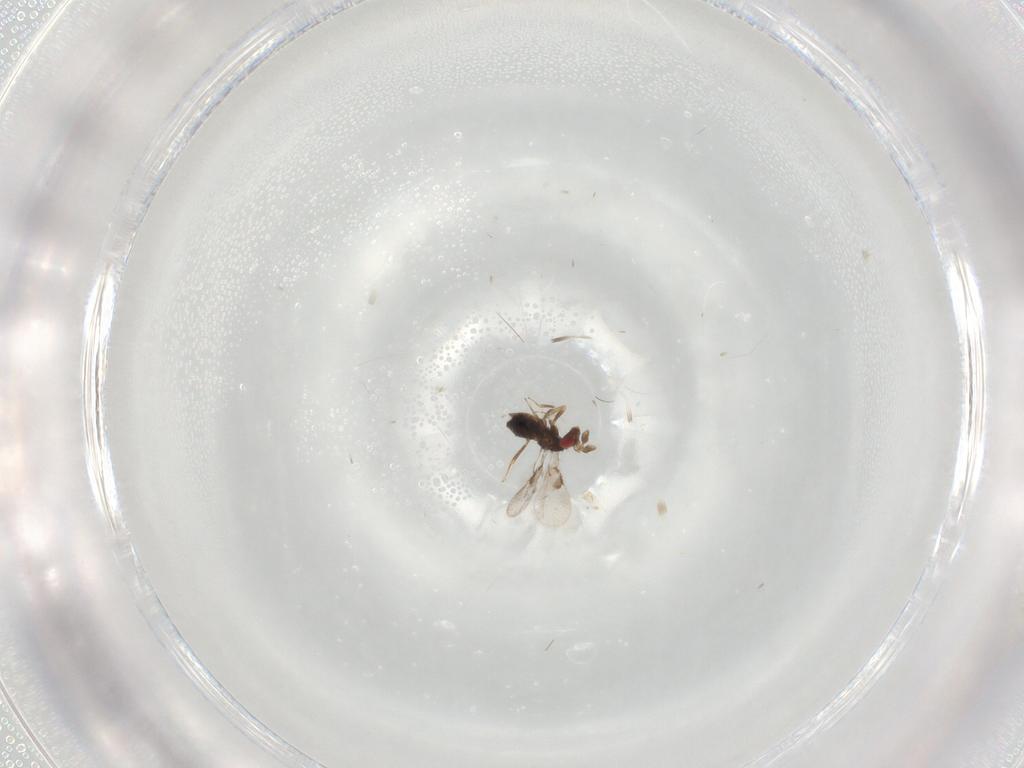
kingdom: Animalia
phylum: Arthropoda
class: Insecta
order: Hymenoptera
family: Trichogrammatidae
